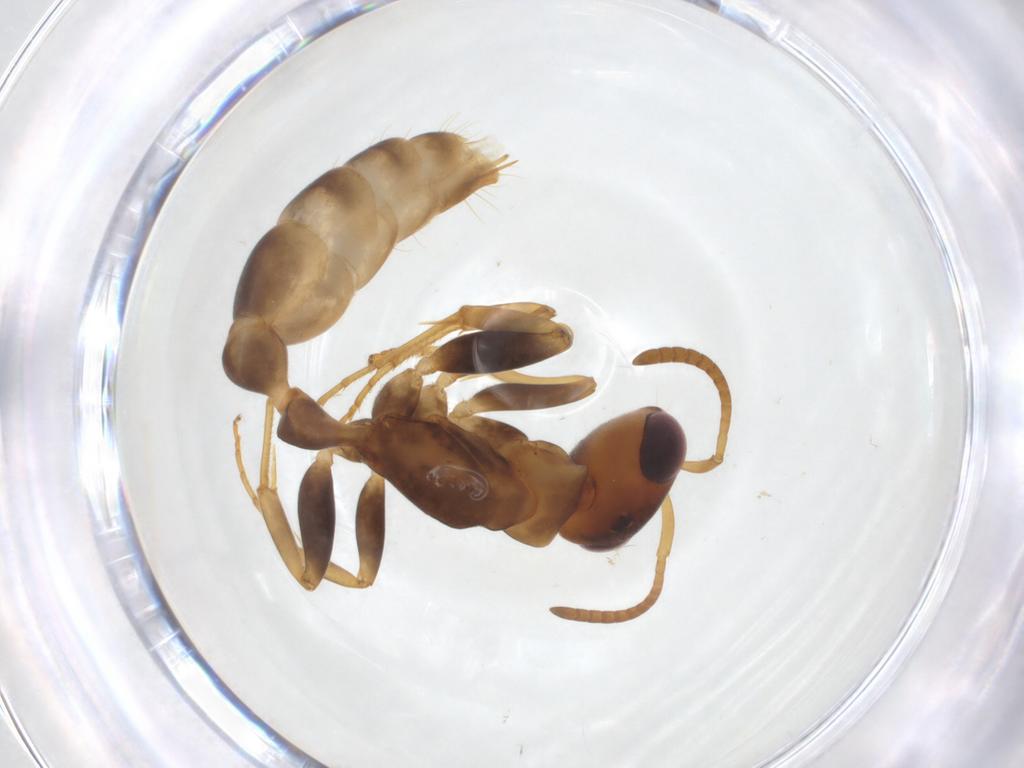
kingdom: Animalia
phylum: Arthropoda
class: Insecta
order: Hymenoptera
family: Formicidae
